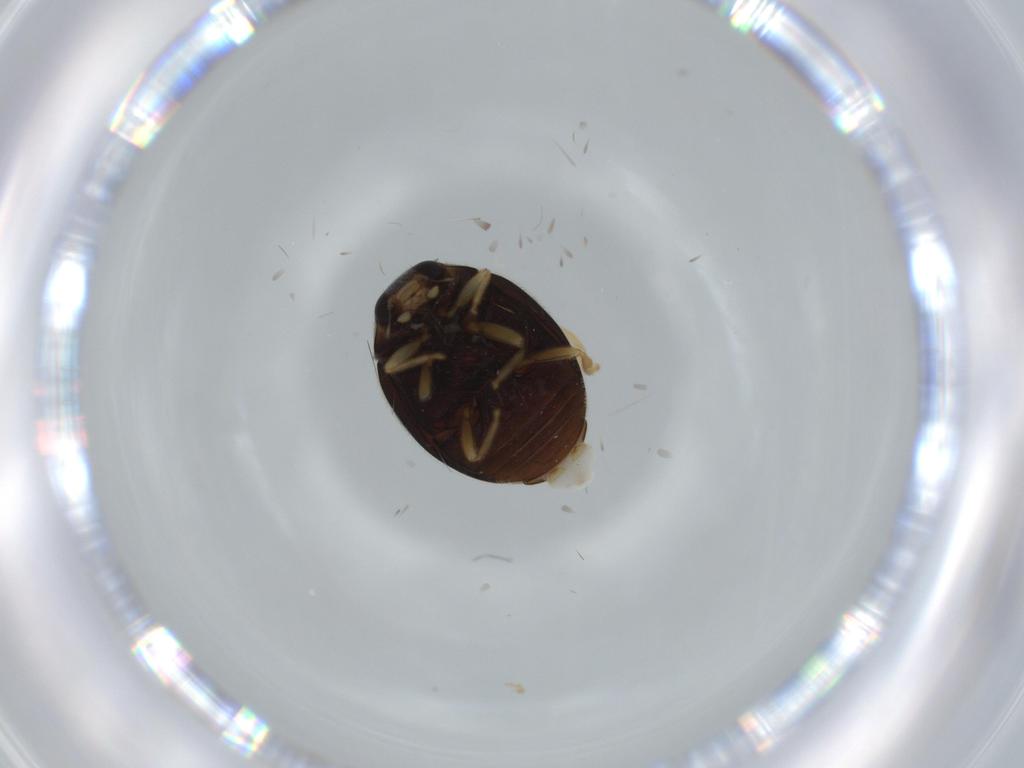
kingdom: Animalia
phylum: Arthropoda
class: Insecta
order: Coleoptera
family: Coccinellidae
